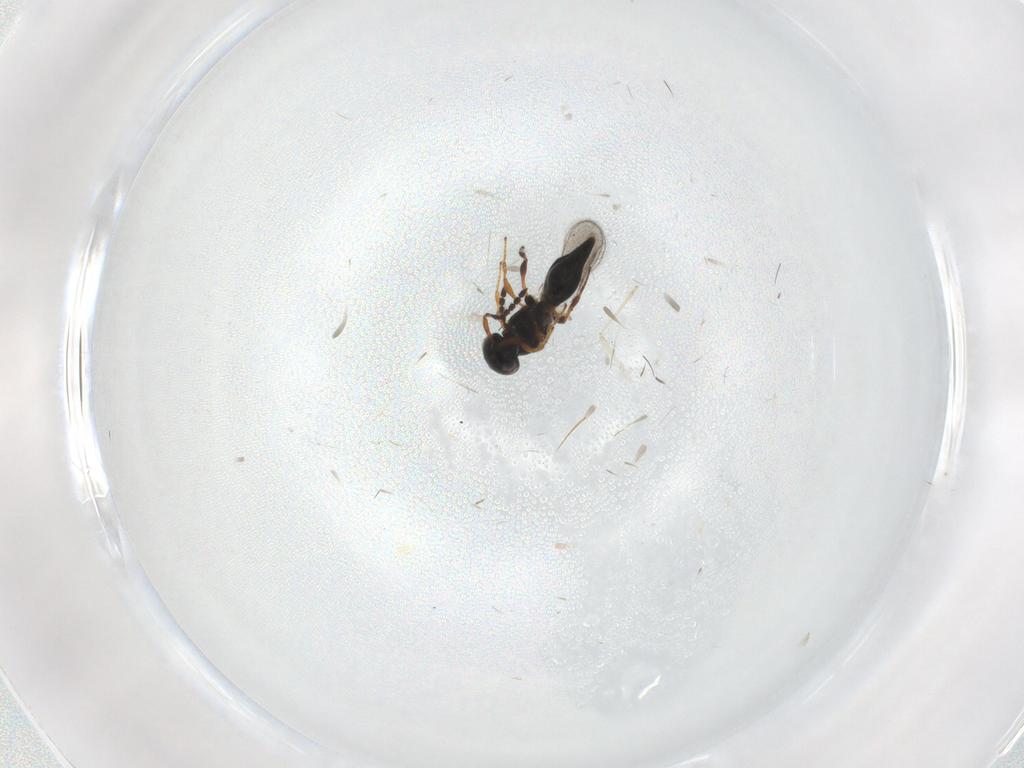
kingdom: Animalia
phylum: Arthropoda
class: Insecta
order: Hymenoptera
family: Platygastridae
